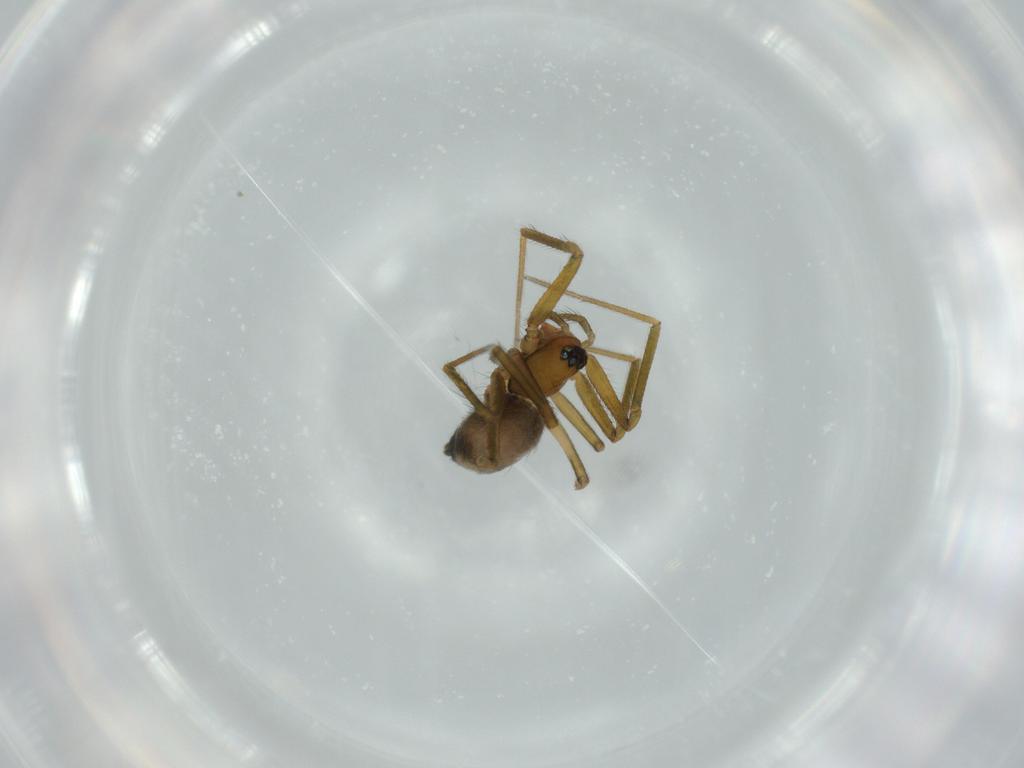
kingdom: Animalia
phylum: Arthropoda
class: Arachnida
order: Araneae
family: Linyphiidae
